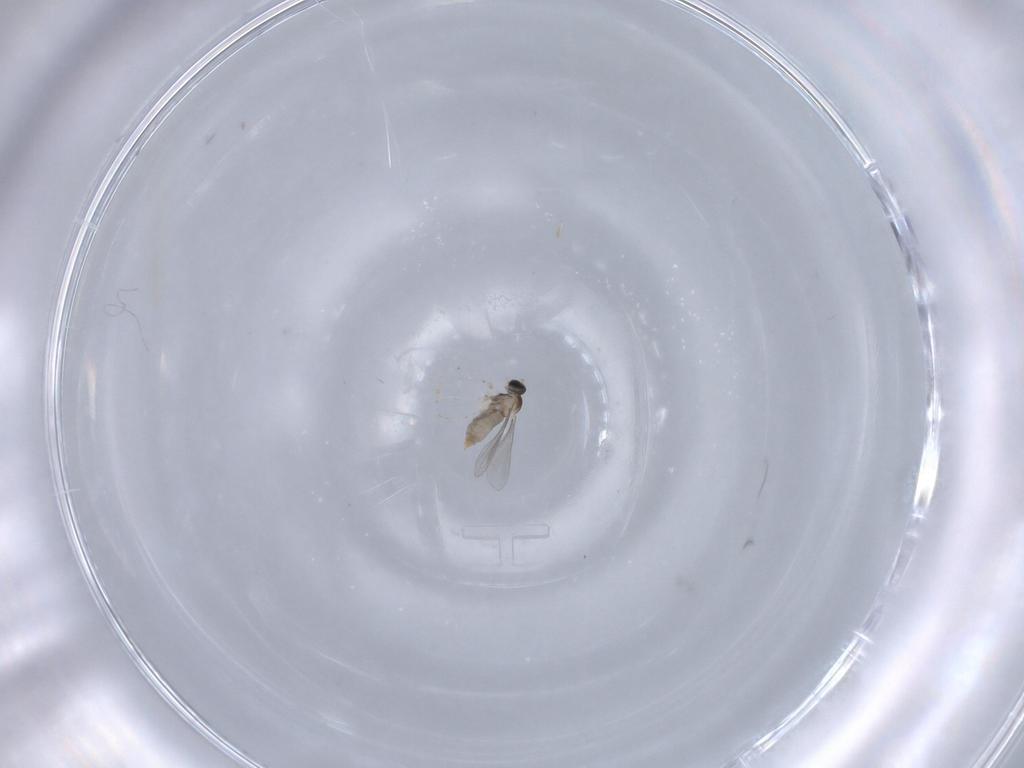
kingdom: Animalia
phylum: Arthropoda
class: Insecta
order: Diptera
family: Cecidomyiidae
